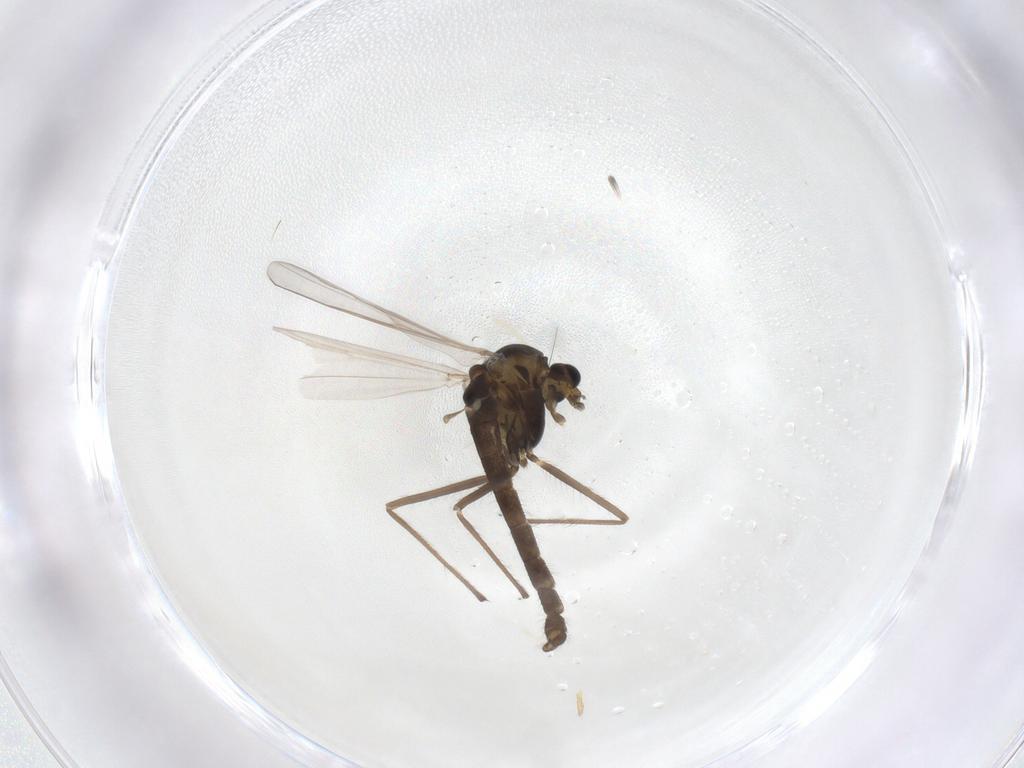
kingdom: Animalia
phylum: Arthropoda
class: Insecta
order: Diptera
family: Chironomidae
